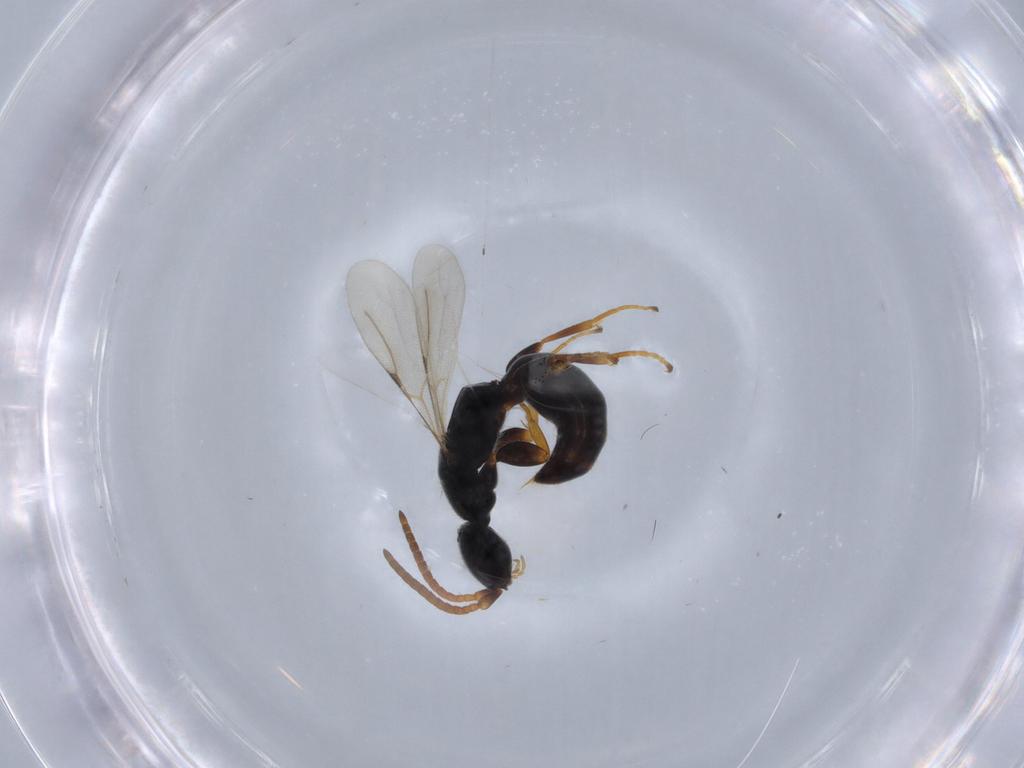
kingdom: Animalia
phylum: Arthropoda
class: Insecta
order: Hymenoptera
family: Bethylidae
